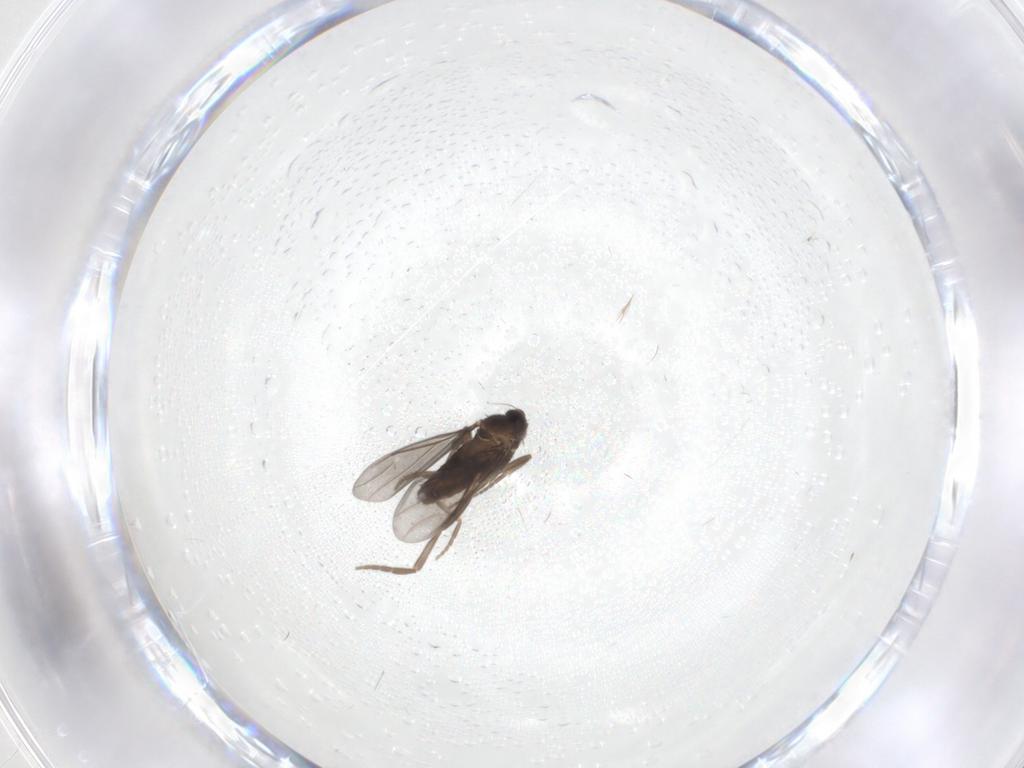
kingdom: Animalia
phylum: Arthropoda
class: Insecta
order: Diptera
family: Phoridae
